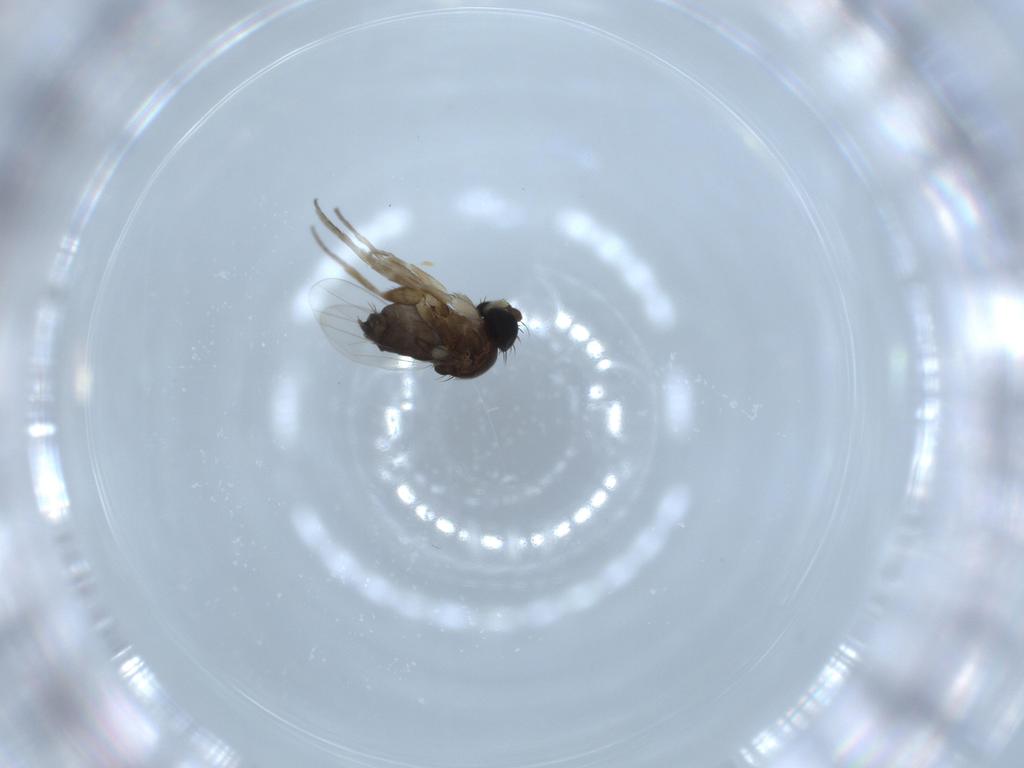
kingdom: Animalia
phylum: Arthropoda
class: Insecta
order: Diptera
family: Phoridae
